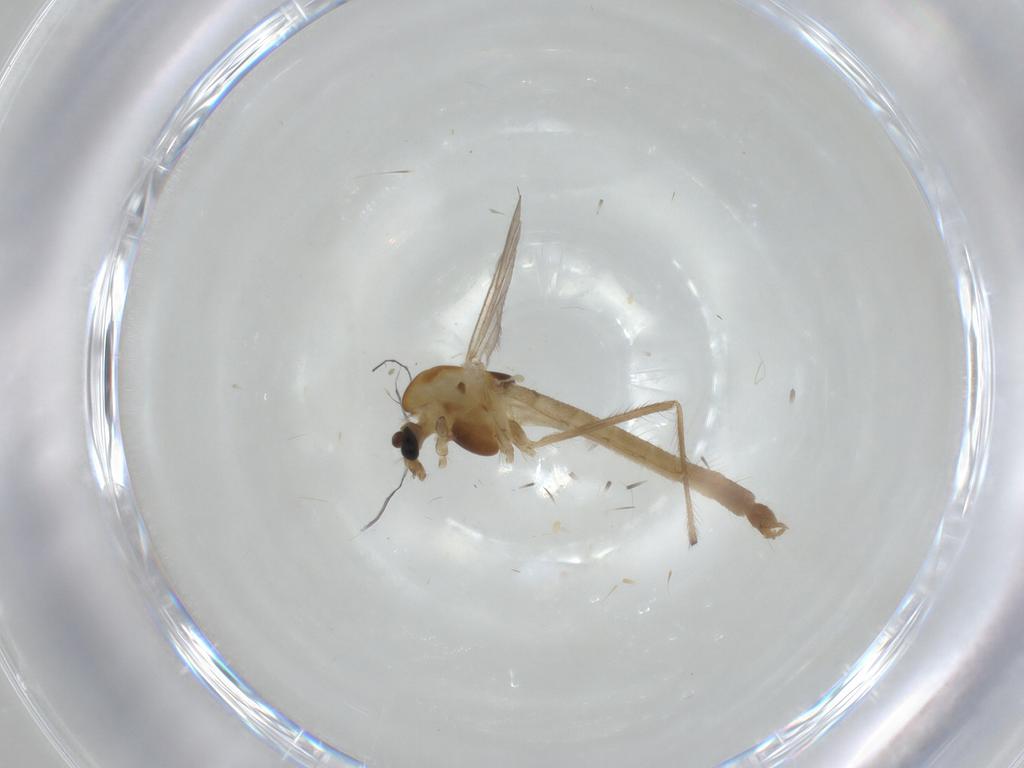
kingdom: Animalia
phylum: Arthropoda
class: Insecta
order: Diptera
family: Chironomidae
